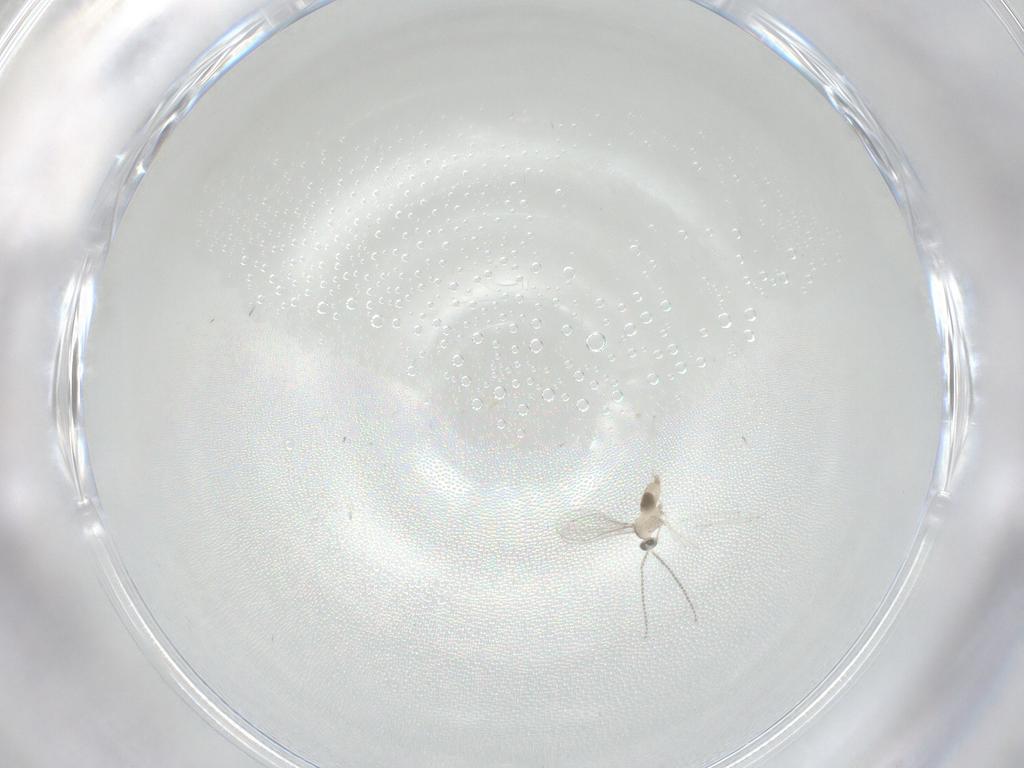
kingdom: Animalia
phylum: Arthropoda
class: Insecta
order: Diptera
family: Cecidomyiidae
